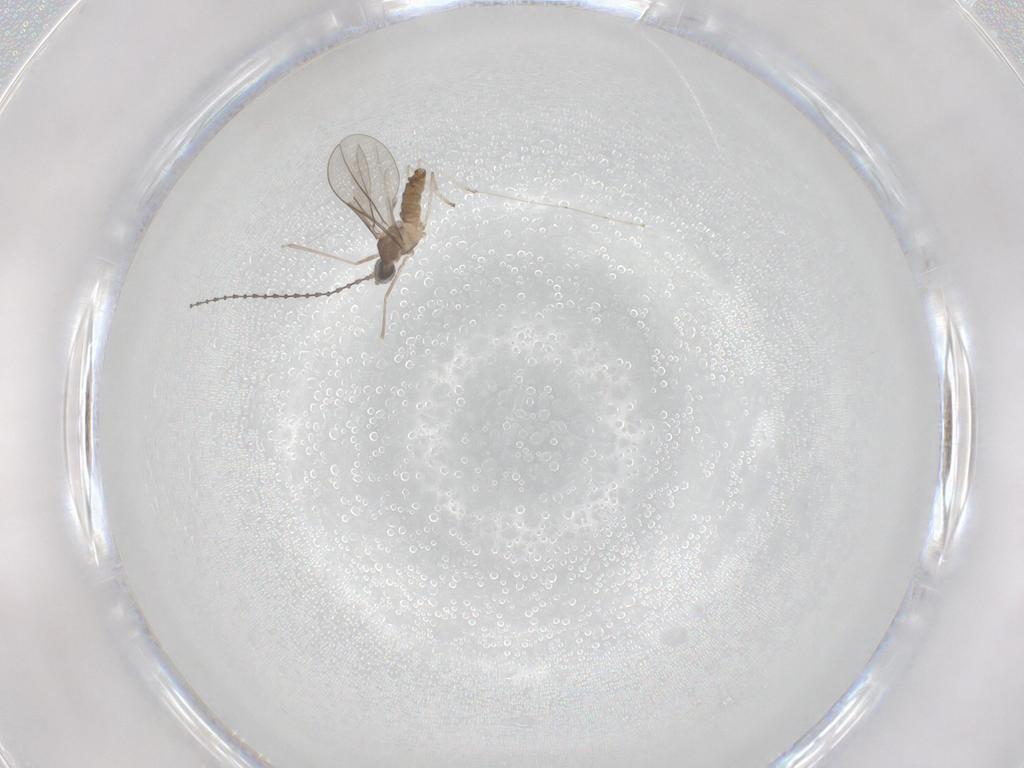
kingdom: Animalia
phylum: Arthropoda
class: Insecta
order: Diptera
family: Cecidomyiidae
